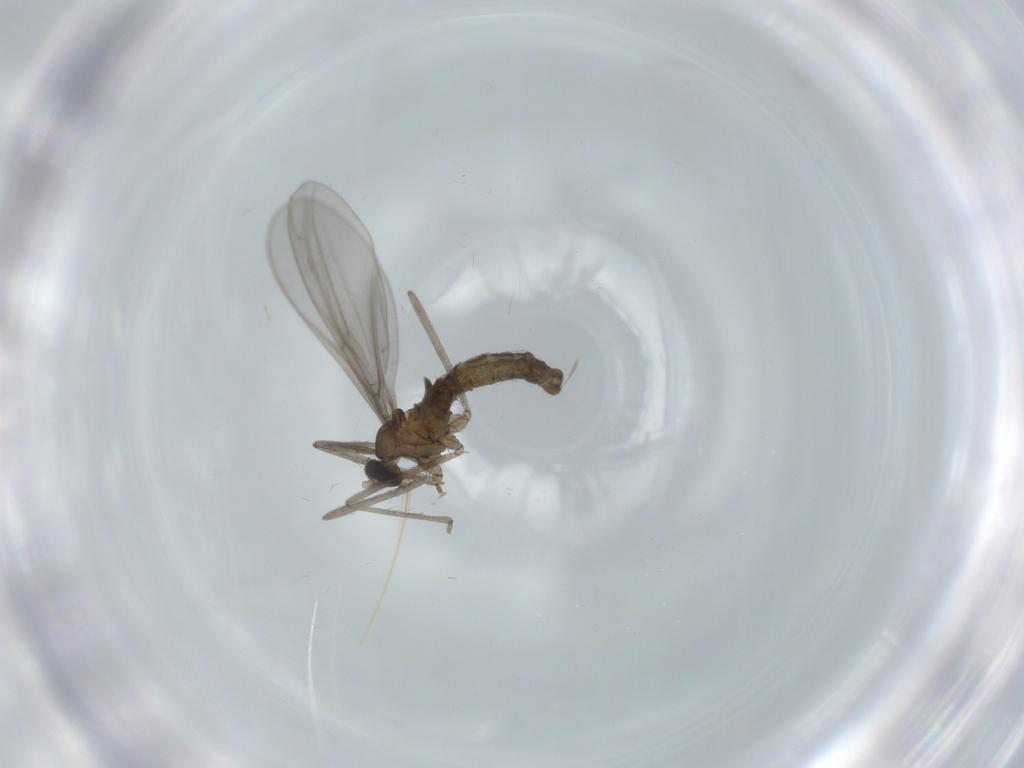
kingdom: Animalia
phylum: Arthropoda
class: Insecta
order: Diptera
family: Cecidomyiidae
